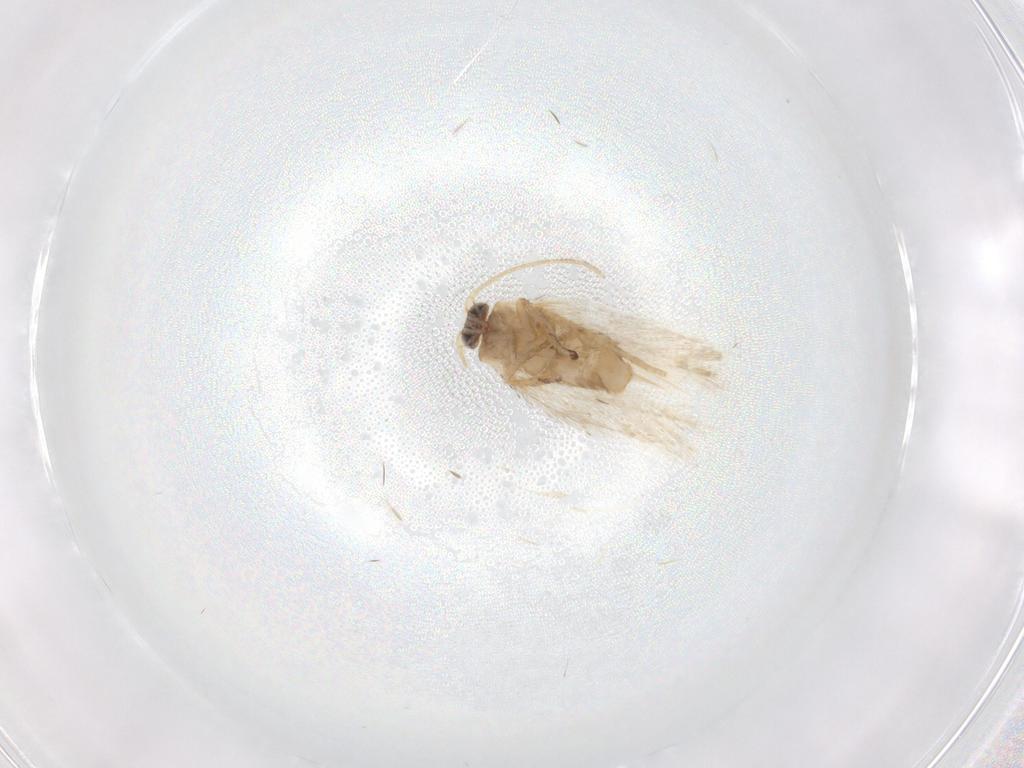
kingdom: Animalia
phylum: Arthropoda
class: Insecta
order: Lepidoptera
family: Nepticulidae
